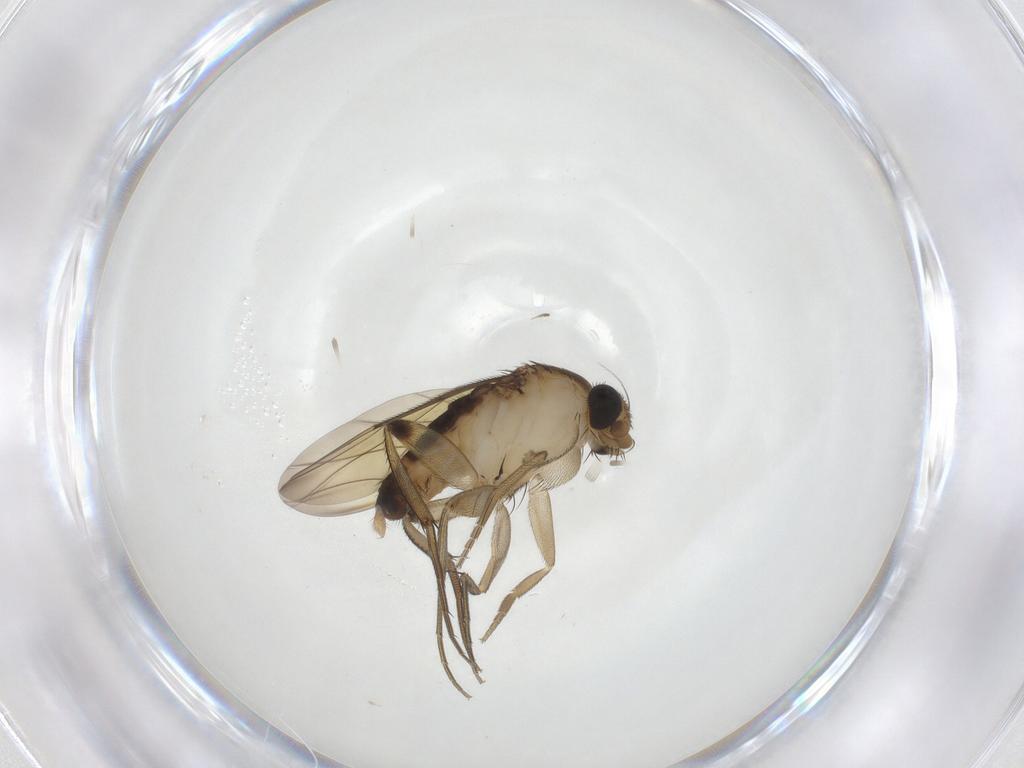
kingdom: Animalia
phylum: Arthropoda
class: Insecta
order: Diptera
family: Phoridae
